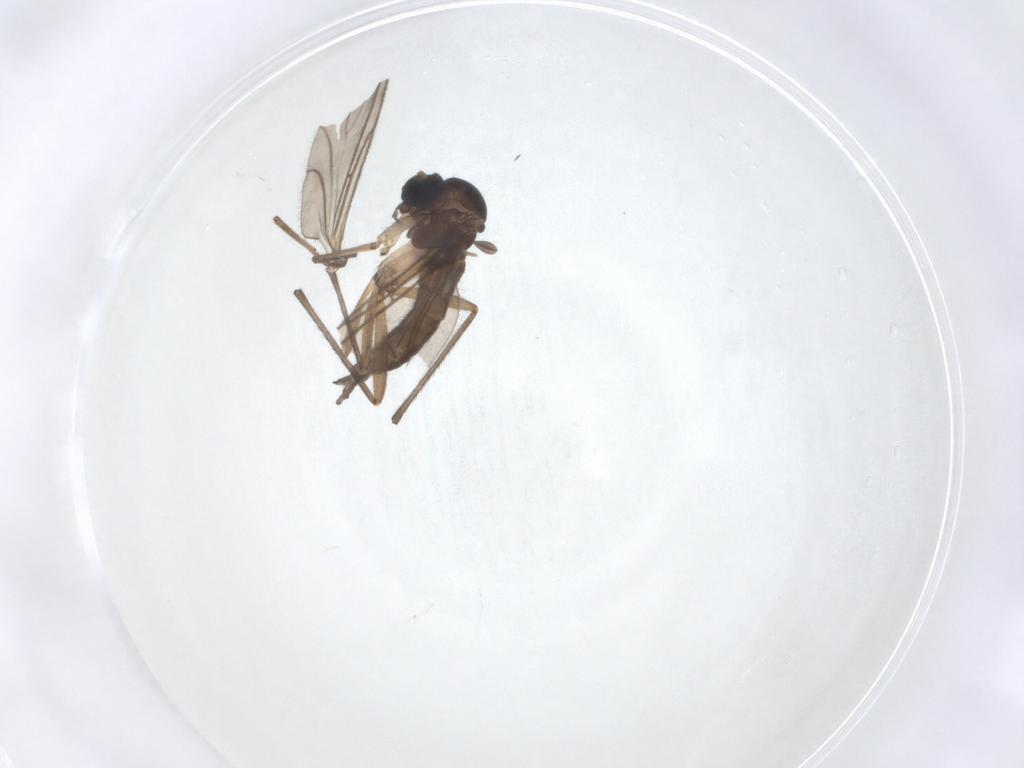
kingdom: Animalia
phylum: Arthropoda
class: Insecta
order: Diptera
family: Sciaridae
